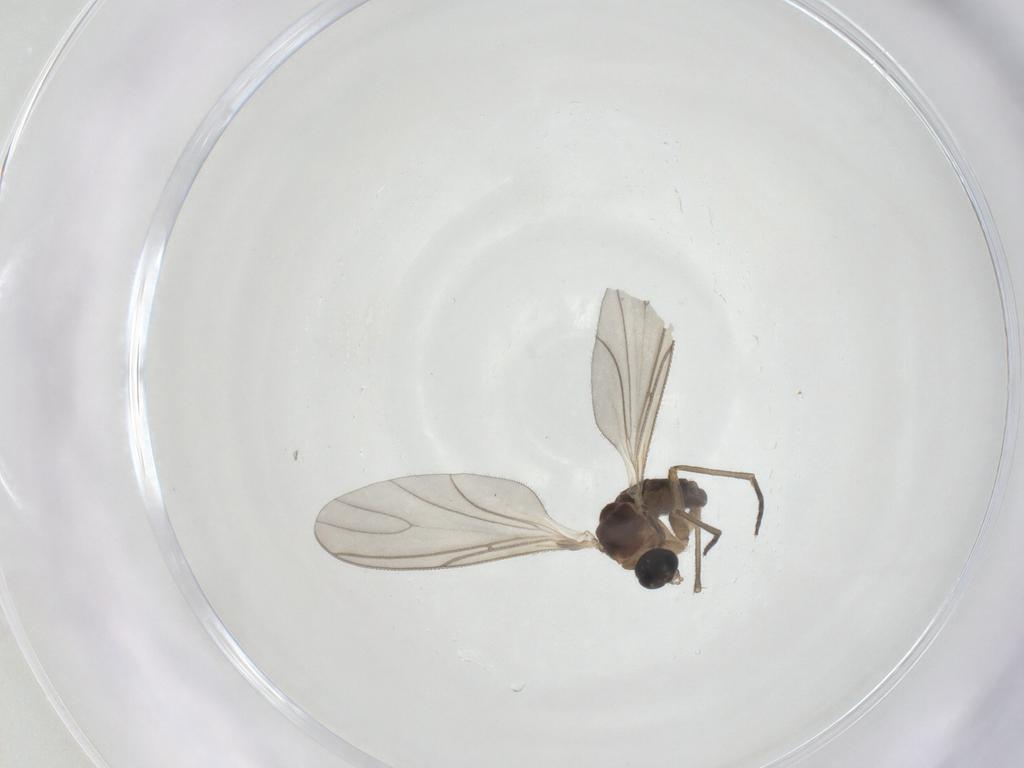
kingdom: Animalia
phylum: Arthropoda
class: Insecta
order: Diptera
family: Sciaridae
